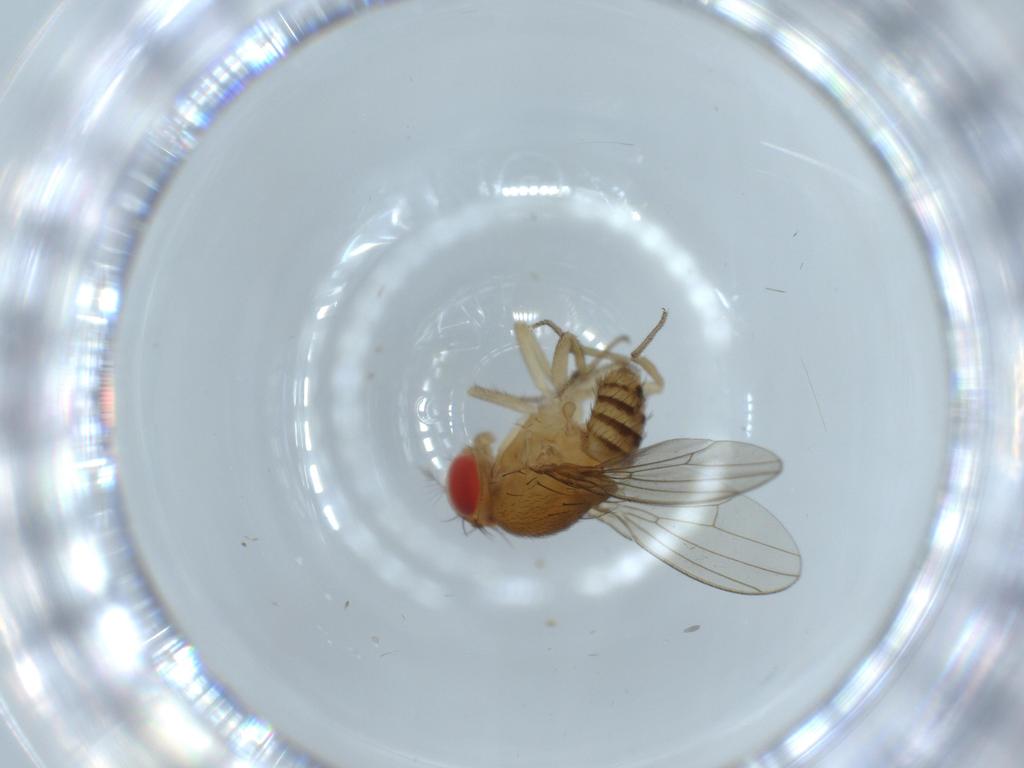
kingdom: Animalia
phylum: Arthropoda
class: Insecta
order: Diptera
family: Drosophilidae
